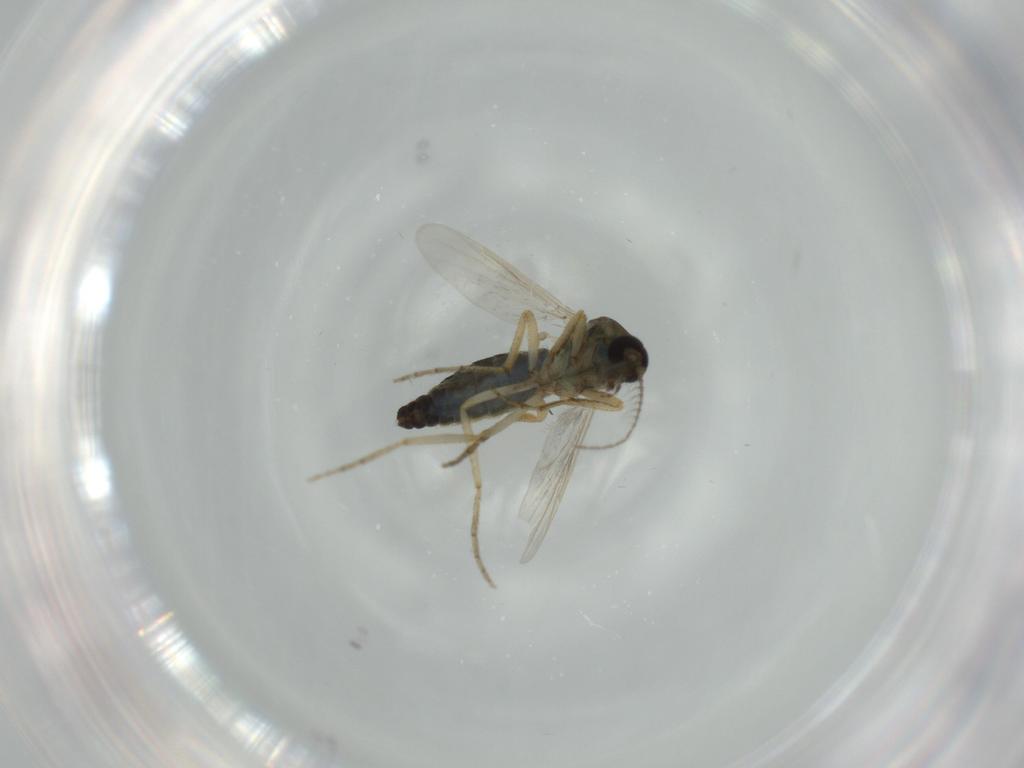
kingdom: Animalia
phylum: Arthropoda
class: Insecta
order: Diptera
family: Ceratopogonidae
